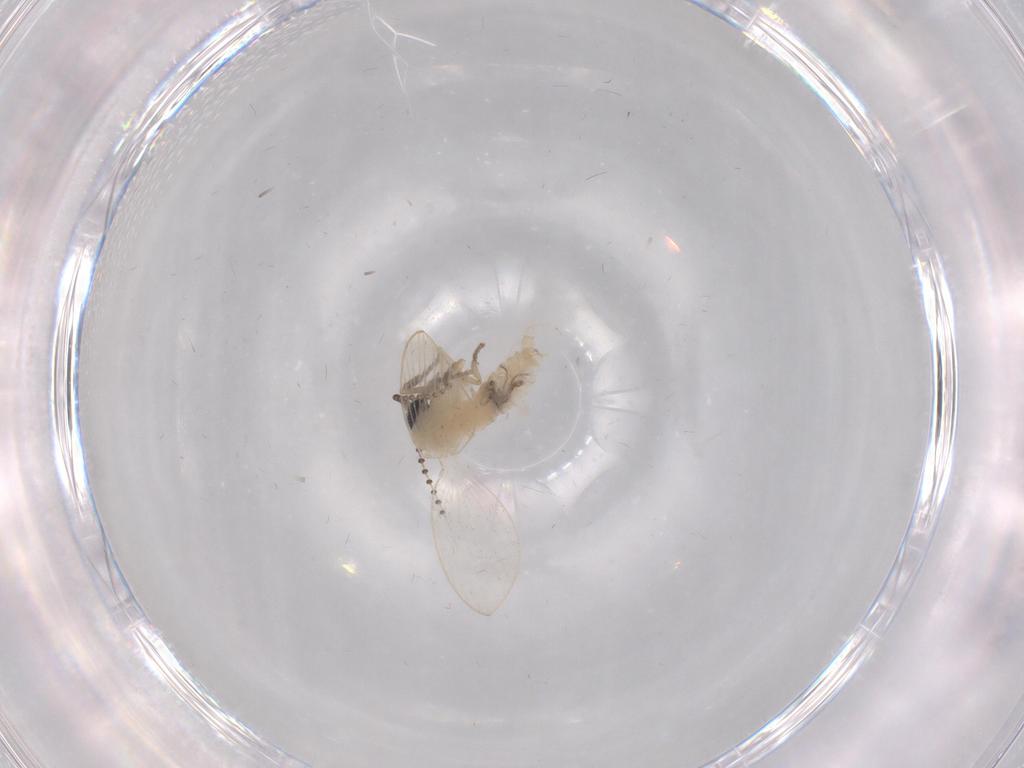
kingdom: Animalia
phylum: Arthropoda
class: Insecta
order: Diptera
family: Psychodidae
